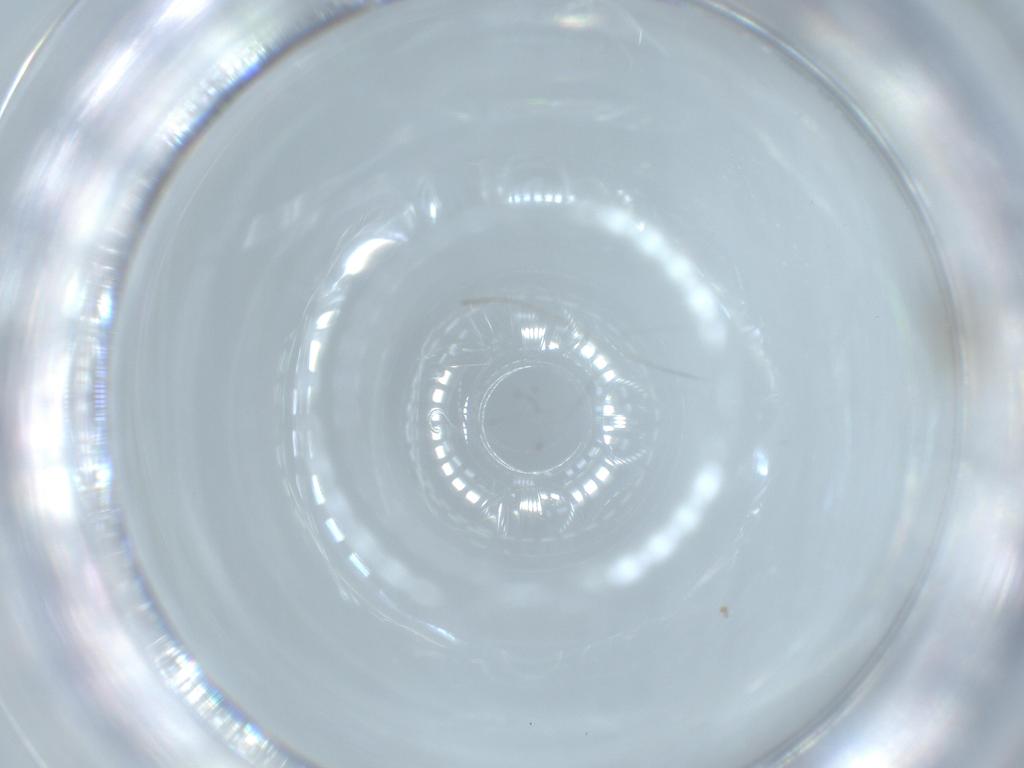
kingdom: Animalia
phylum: Arthropoda
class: Insecta
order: Diptera
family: Cecidomyiidae
